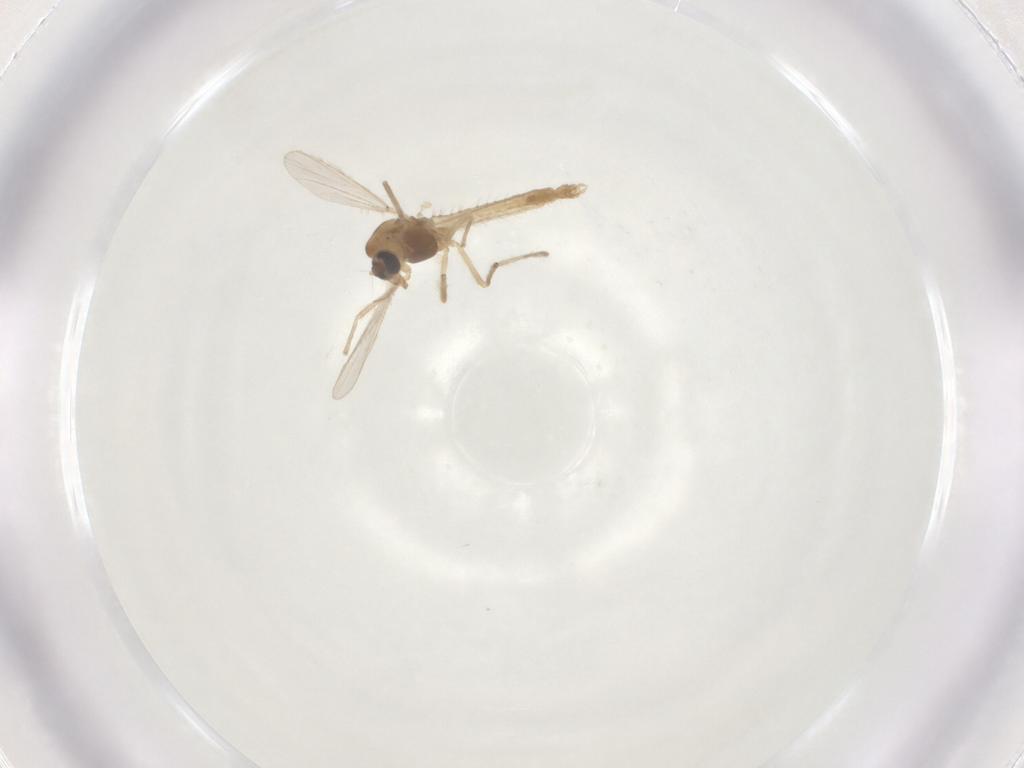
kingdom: Animalia
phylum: Arthropoda
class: Insecta
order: Diptera
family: Chironomidae
